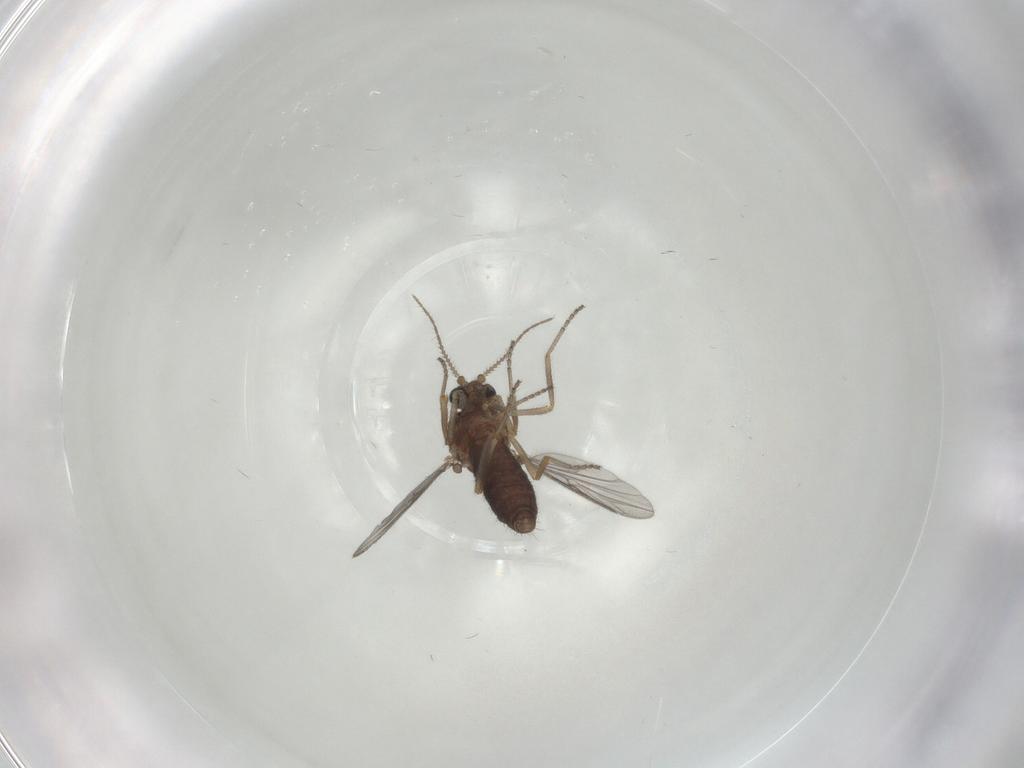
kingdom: Animalia
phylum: Arthropoda
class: Insecta
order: Diptera
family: Ceratopogonidae
